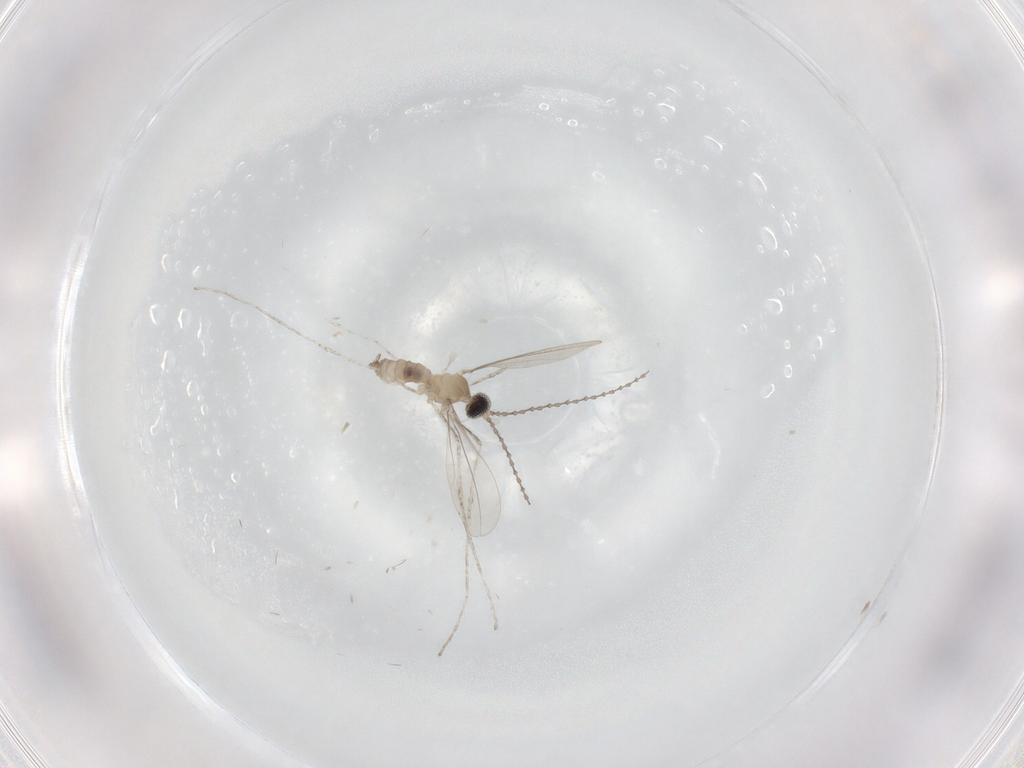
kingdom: Animalia
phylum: Arthropoda
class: Insecta
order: Diptera
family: Cecidomyiidae
